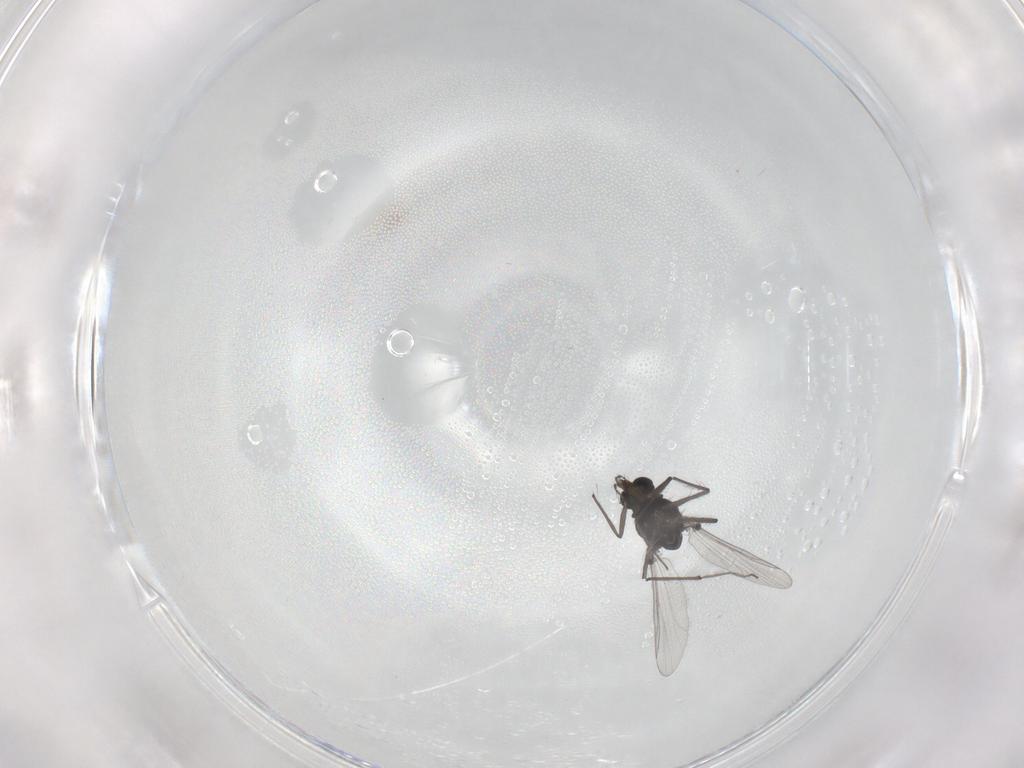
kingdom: Animalia
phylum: Arthropoda
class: Insecta
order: Diptera
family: Chironomidae
